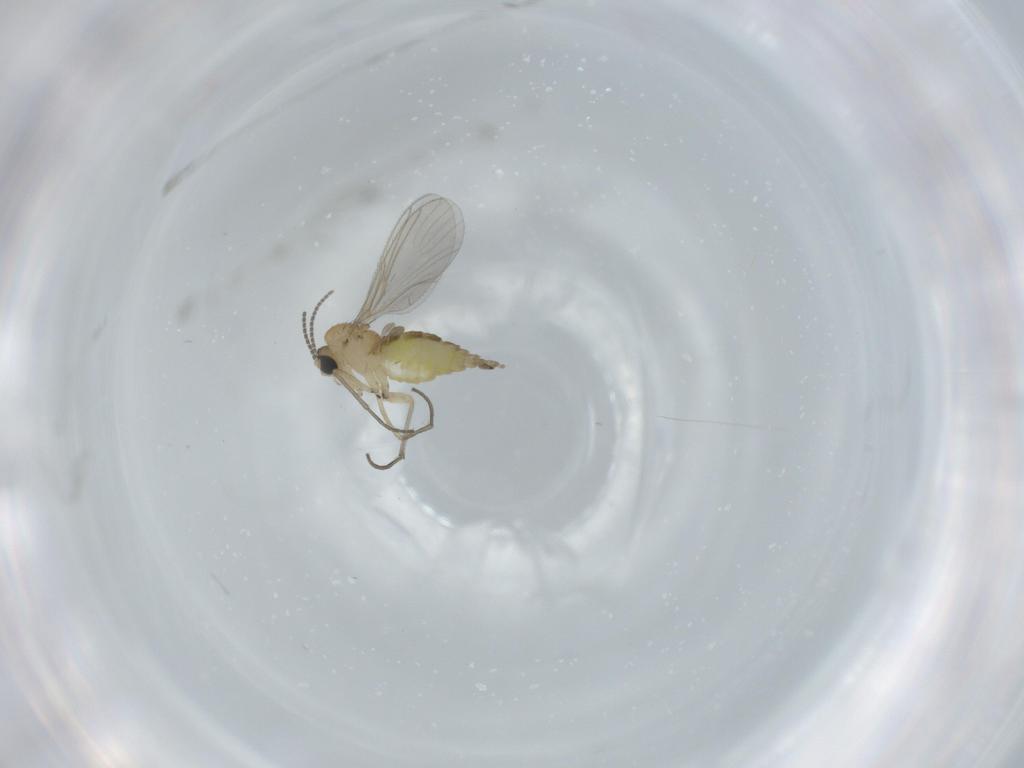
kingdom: Animalia
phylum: Arthropoda
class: Insecta
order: Diptera
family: Sciaridae
